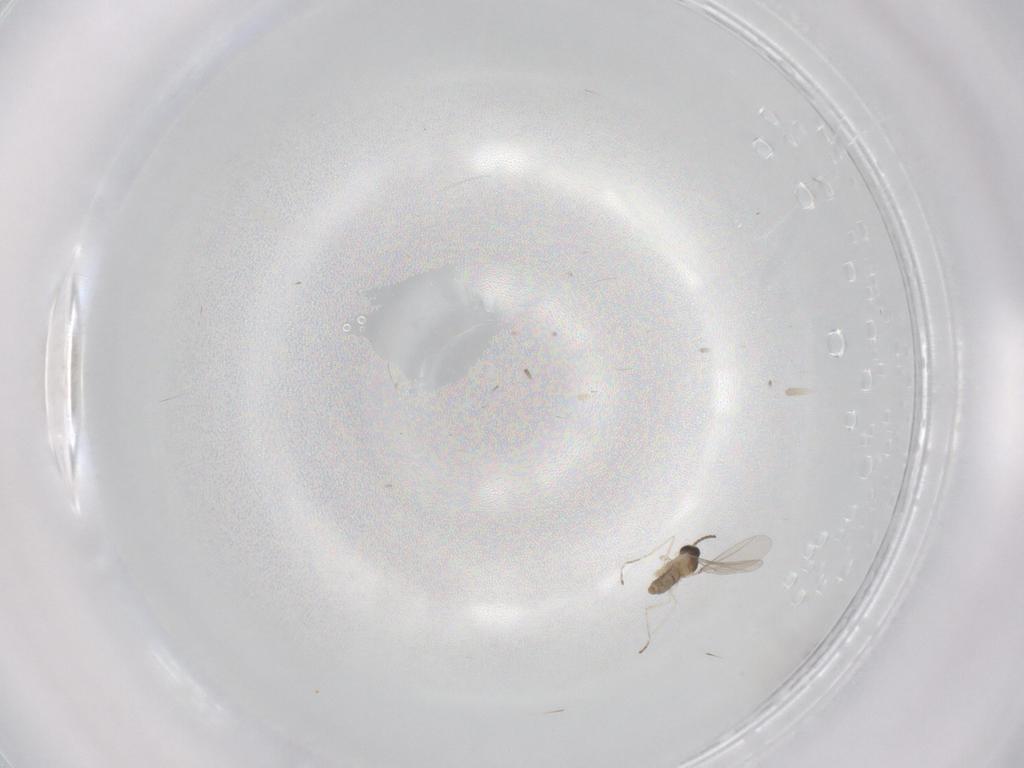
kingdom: Animalia
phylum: Arthropoda
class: Insecta
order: Diptera
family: Cecidomyiidae
